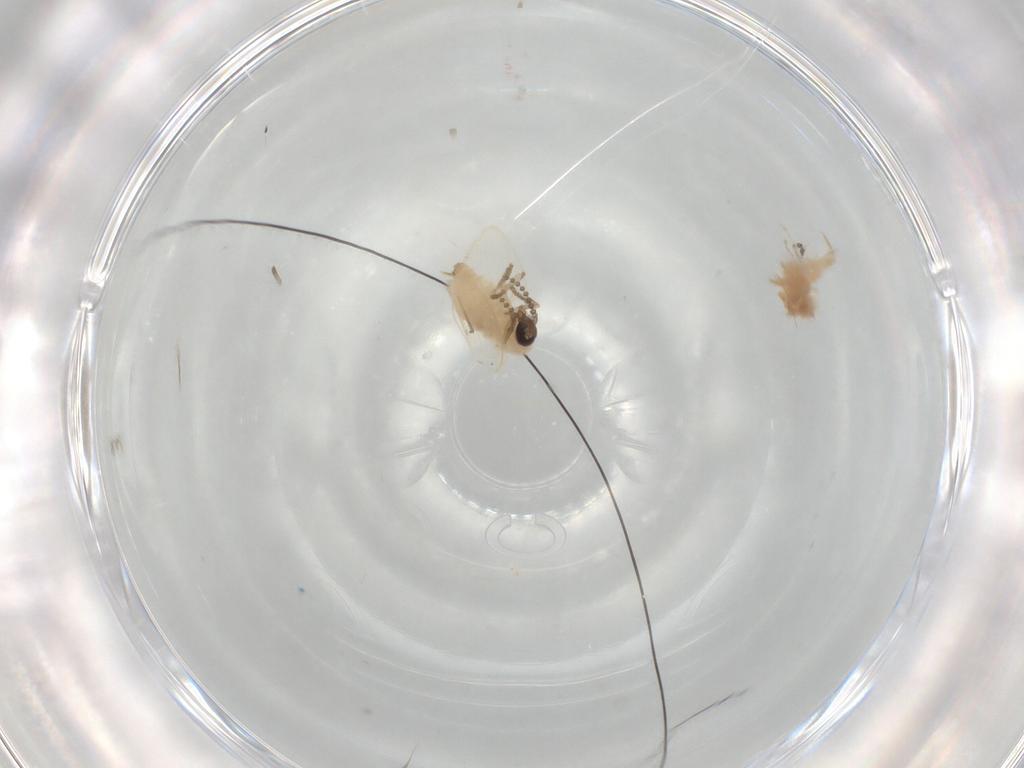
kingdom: Animalia
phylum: Arthropoda
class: Insecta
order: Diptera
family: Psychodidae
